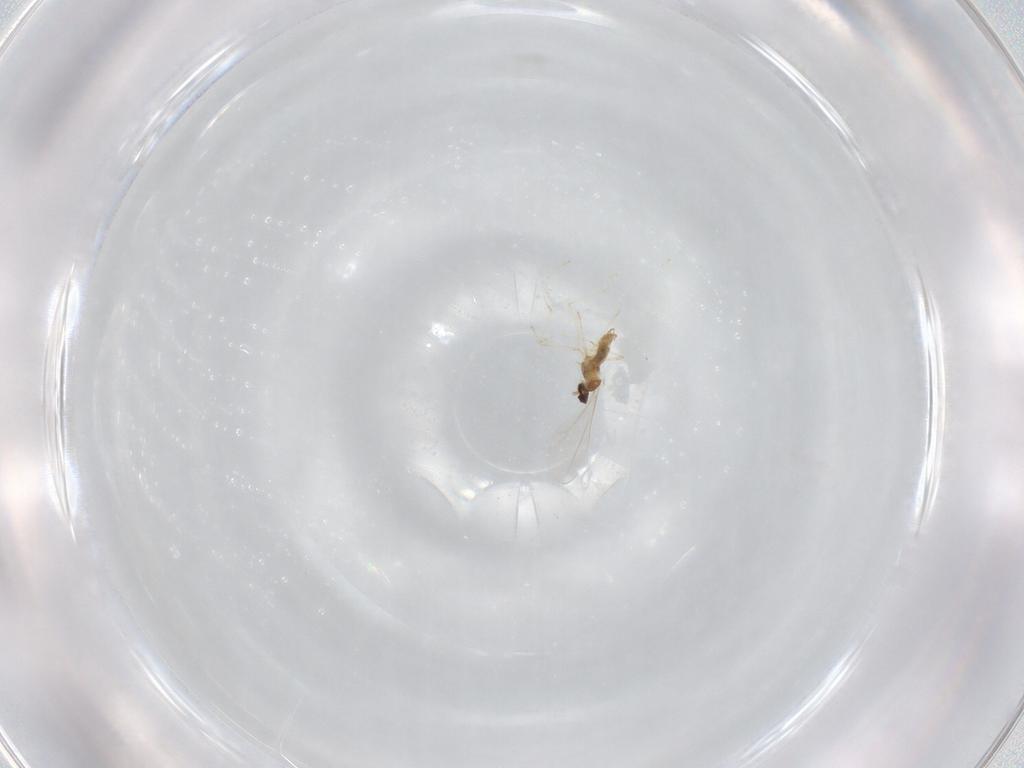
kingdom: Animalia
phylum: Arthropoda
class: Insecta
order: Diptera
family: Cecidomyiidae
